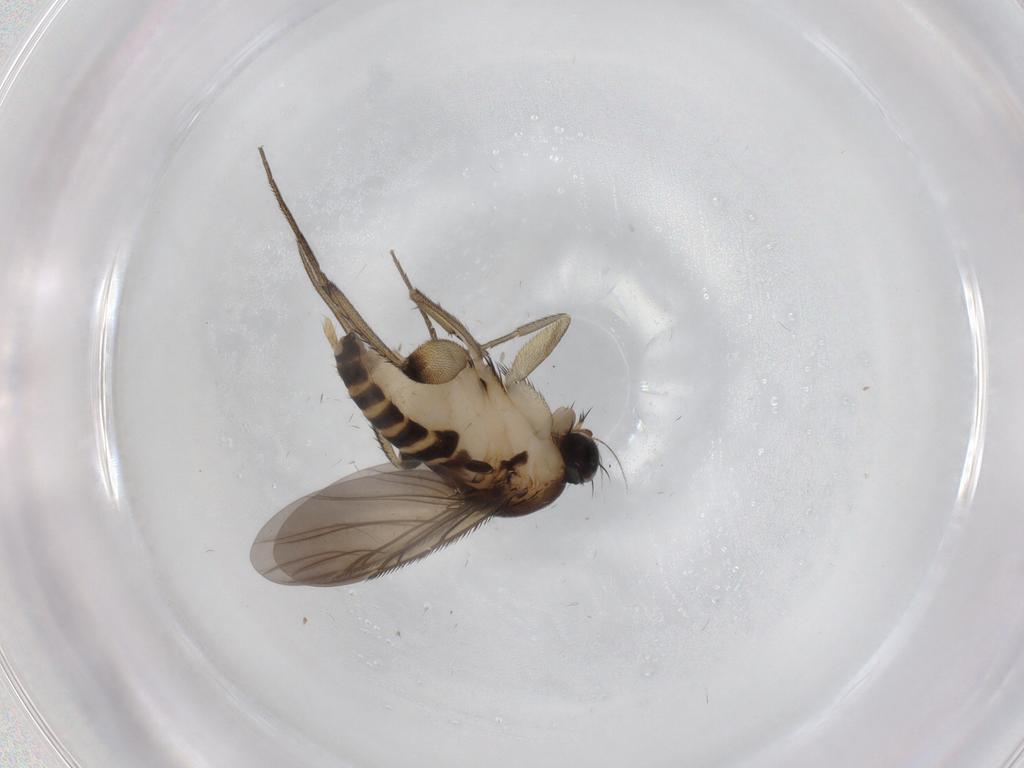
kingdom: Animalia
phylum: Arthropoda
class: Insecta
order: Diptera
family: Phoridae
